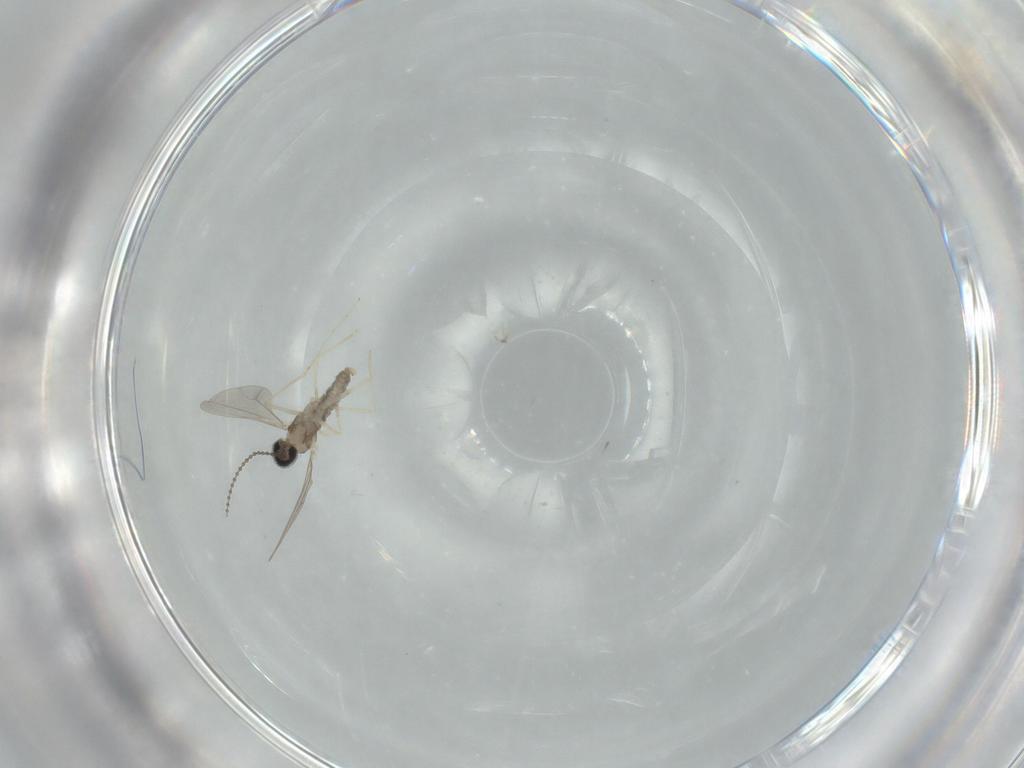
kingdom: Animalia
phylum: Arthropoda
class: Insecta
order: Diptera
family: Cecidomyiidae
